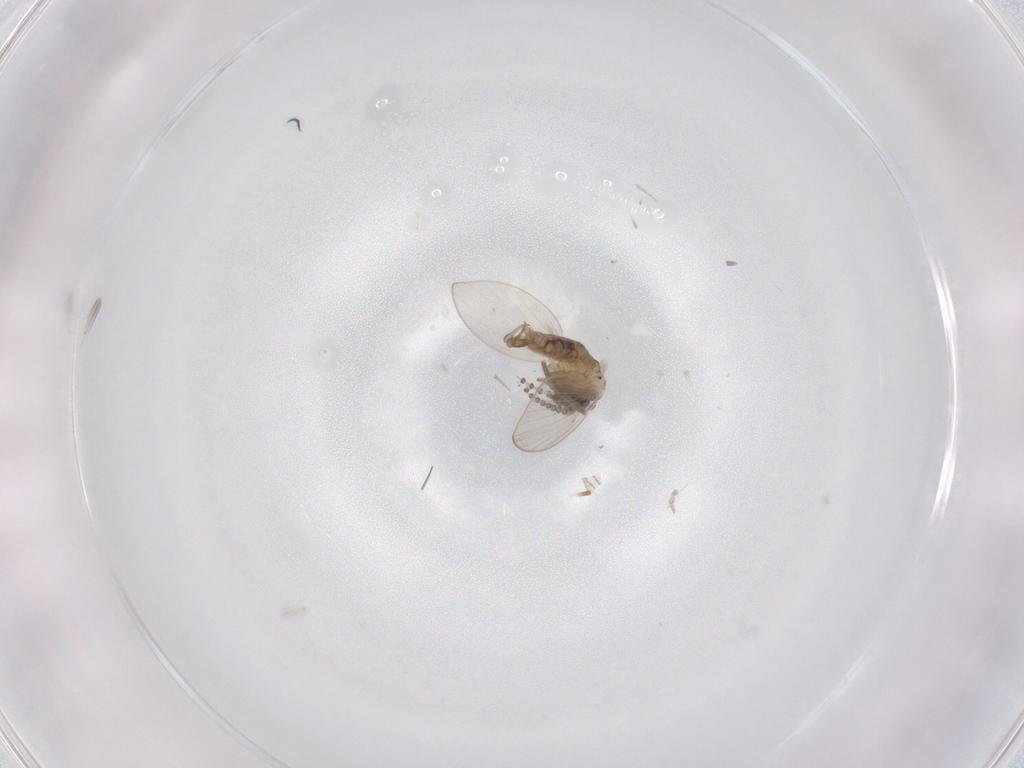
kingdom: Animalia
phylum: Arthropoda
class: Insecta
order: Diptera
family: Psychodidae
